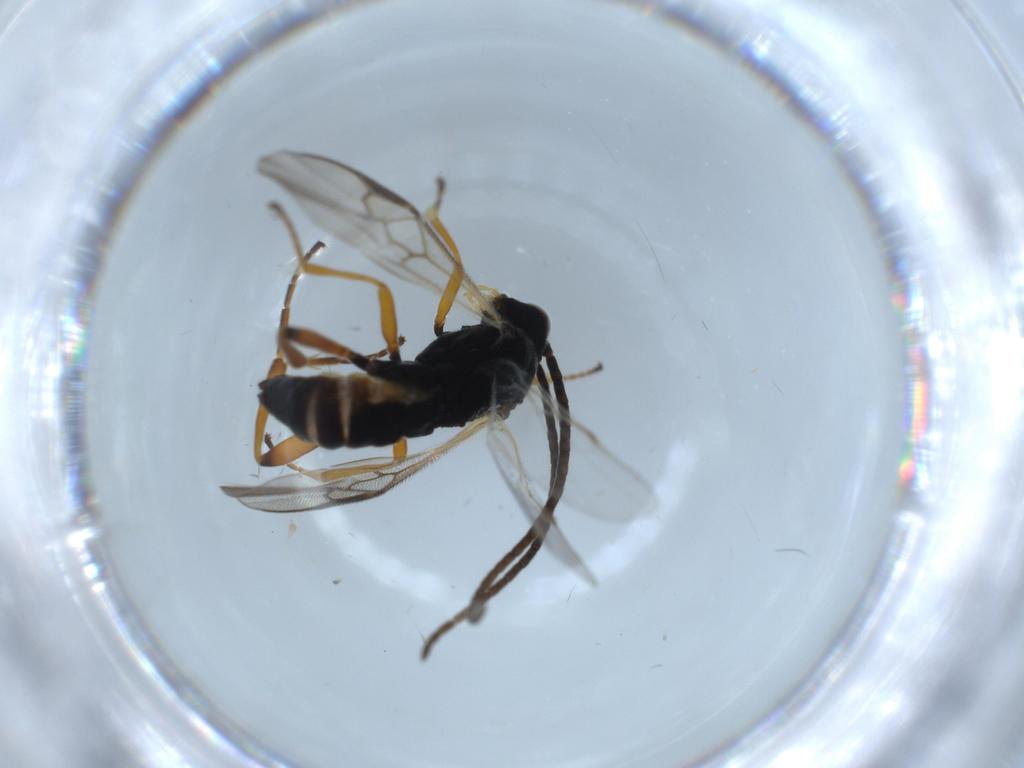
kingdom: Animalia
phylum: Arthropoda
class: Insecta
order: Hymenoptera
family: Braconidae
